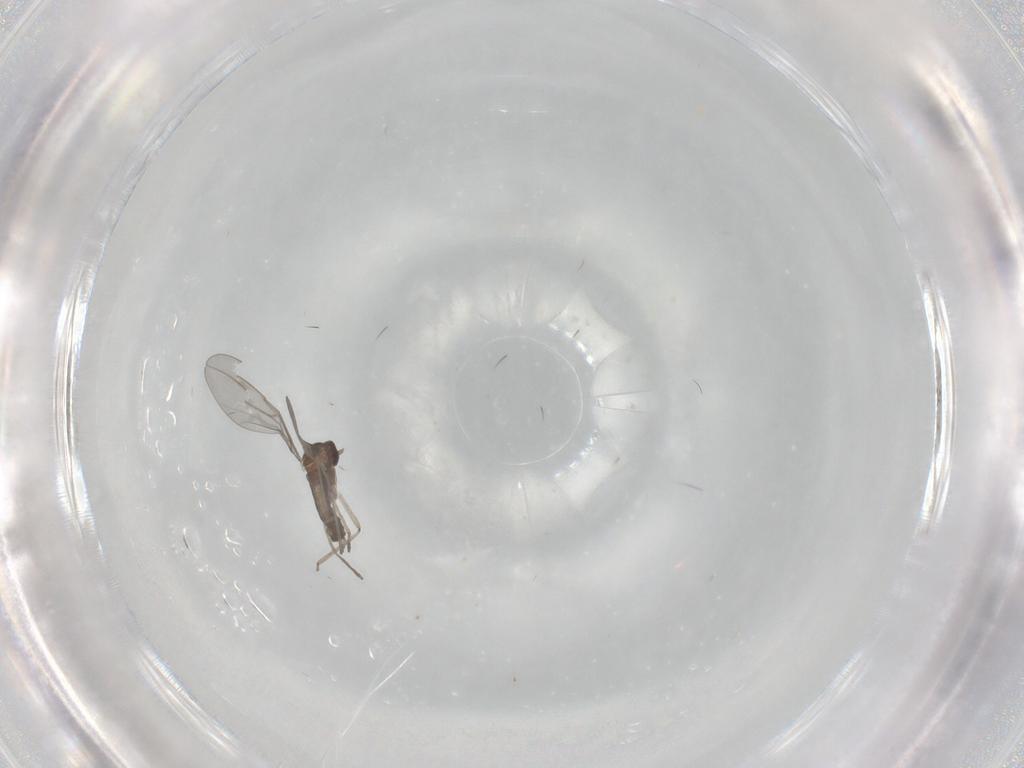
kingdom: Animalia
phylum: Arthropoda
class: Insecta
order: Diptera
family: Cecidomyiidae
